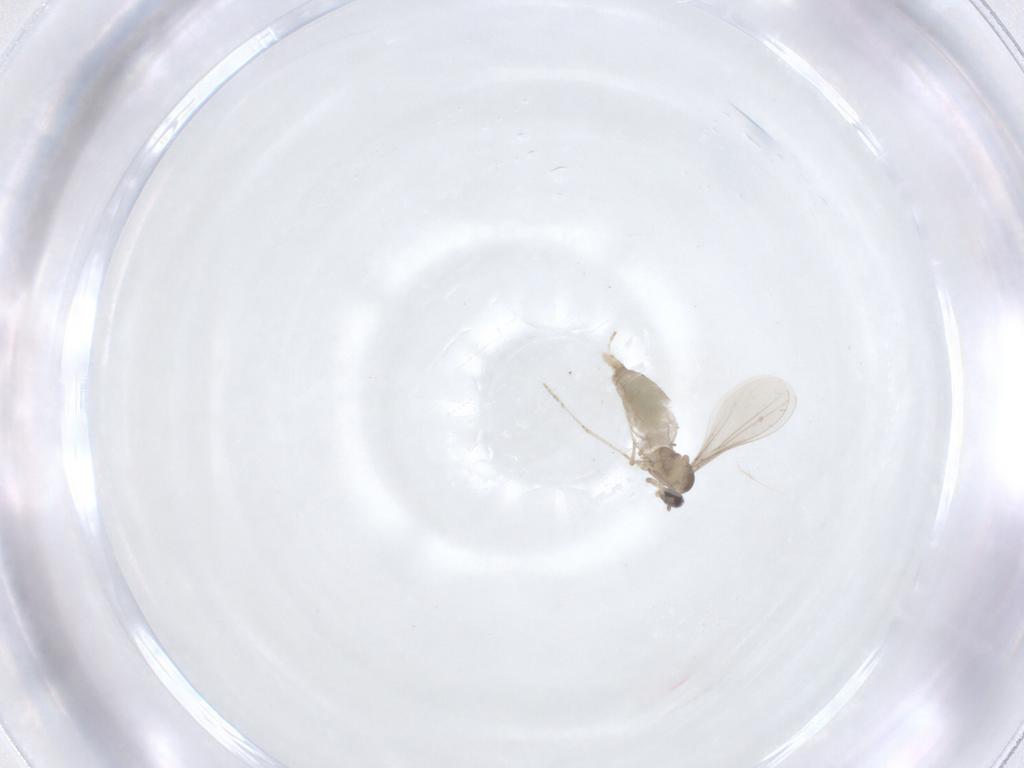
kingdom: Animalia
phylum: Arthropoda
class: Insecta
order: Diptera
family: Cecidomyiidae
